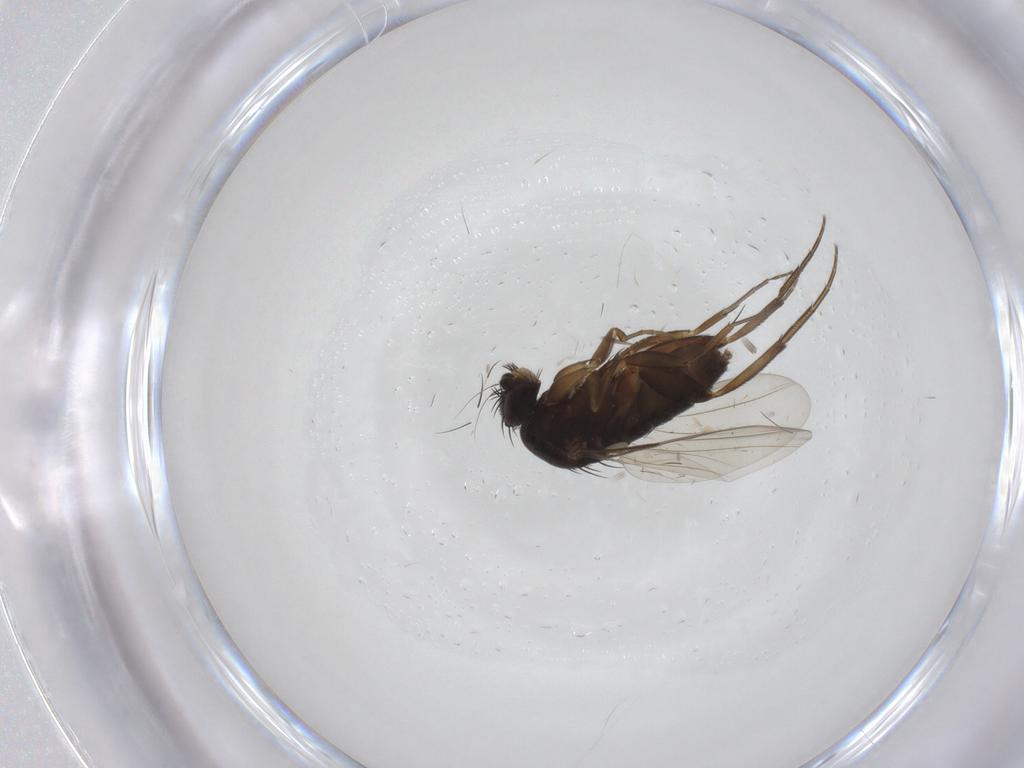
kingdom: Animalia
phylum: Arthropoda
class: Insecta
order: Diptera
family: Phoridae
